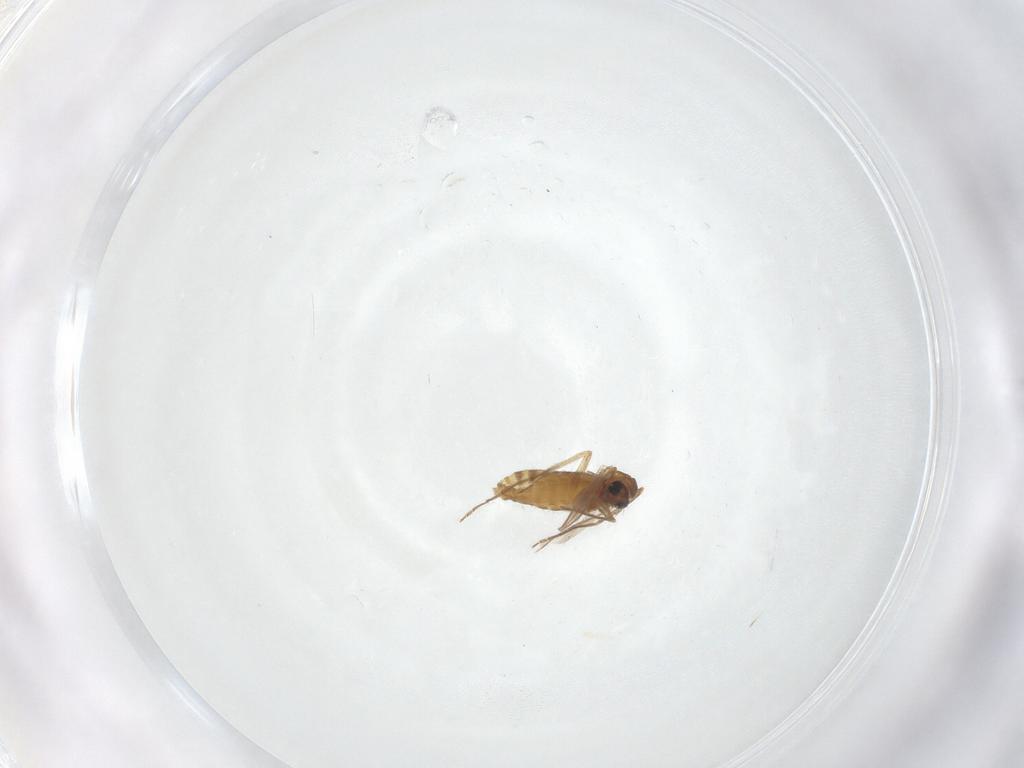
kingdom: Animalia
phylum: Arthropoda
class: Insecta
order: Diptera
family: Chironomidae
